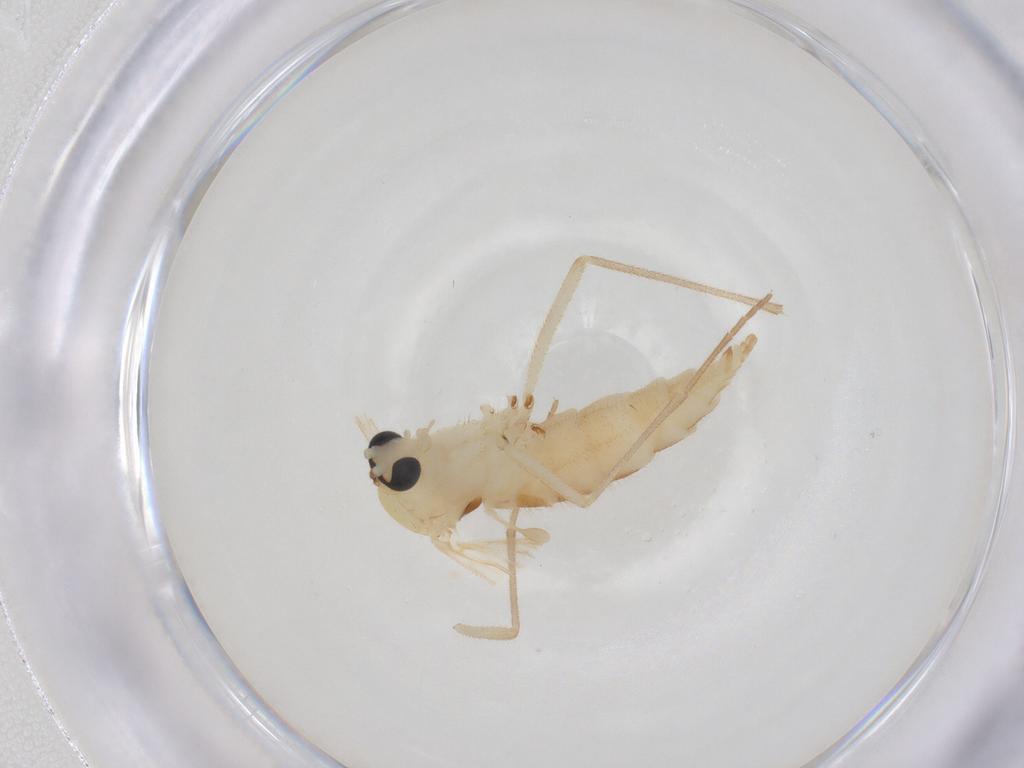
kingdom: Animalia
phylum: Arthropoda
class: Insecta
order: Diptera
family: Sciaridae
